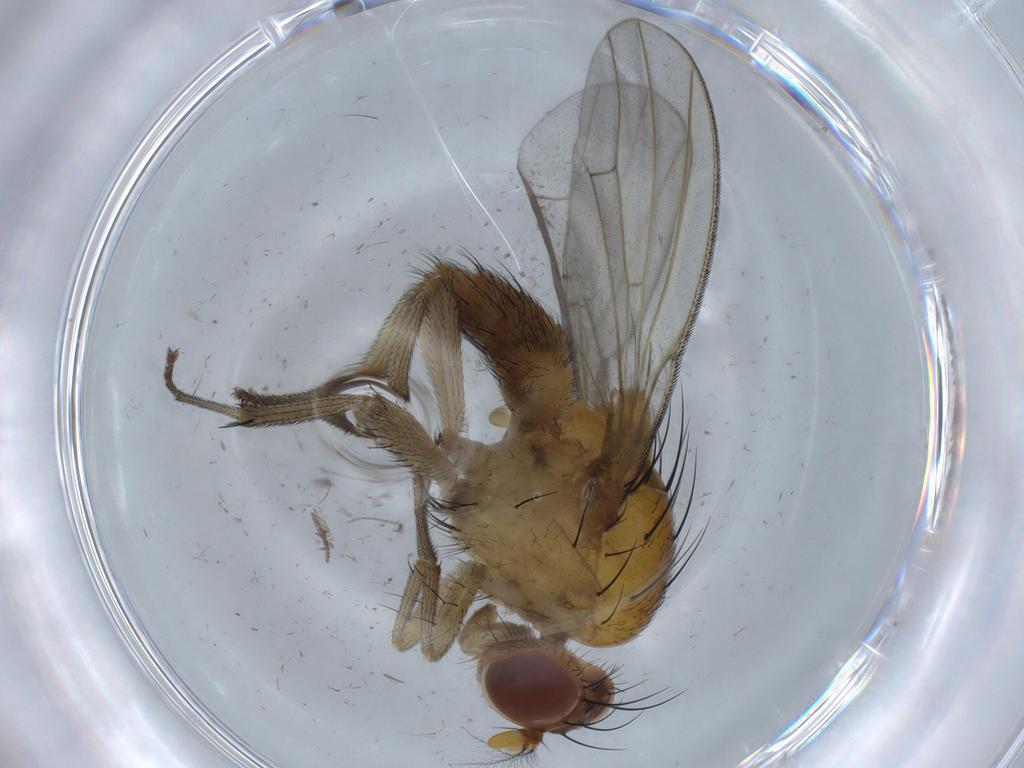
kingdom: Animalia
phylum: Arthropoda
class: Insecta
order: Diptera
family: Chironomidae
